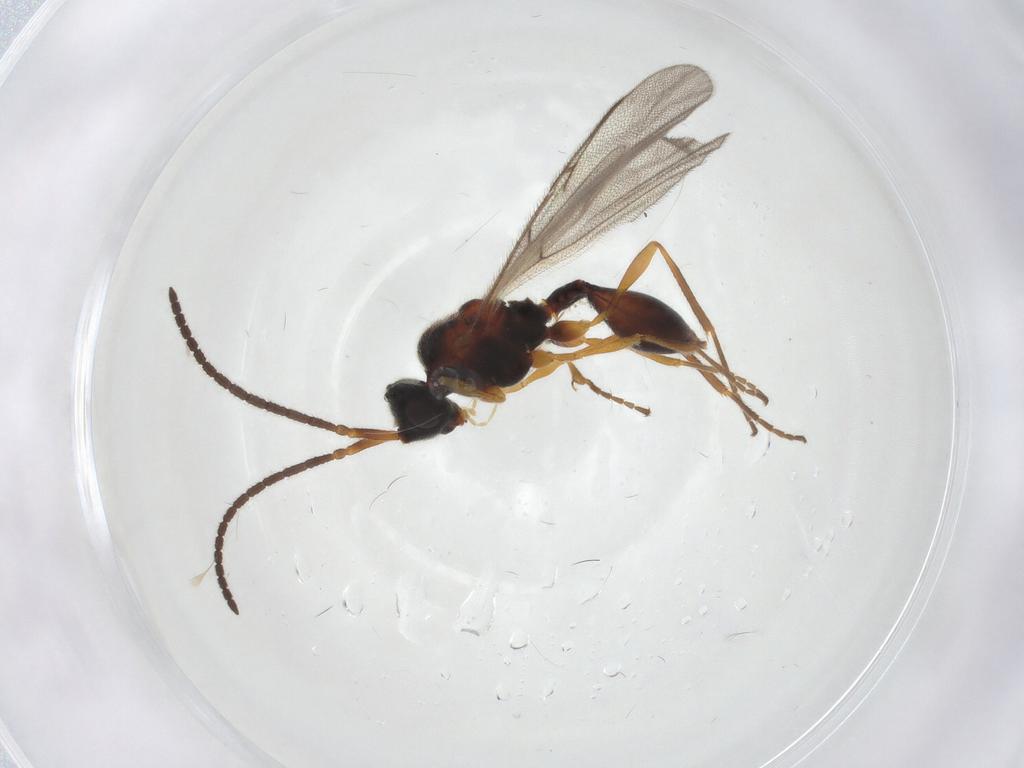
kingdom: Animalia
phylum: Arthropoda
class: Insecta
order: Hymenoptera
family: Diapriidae
